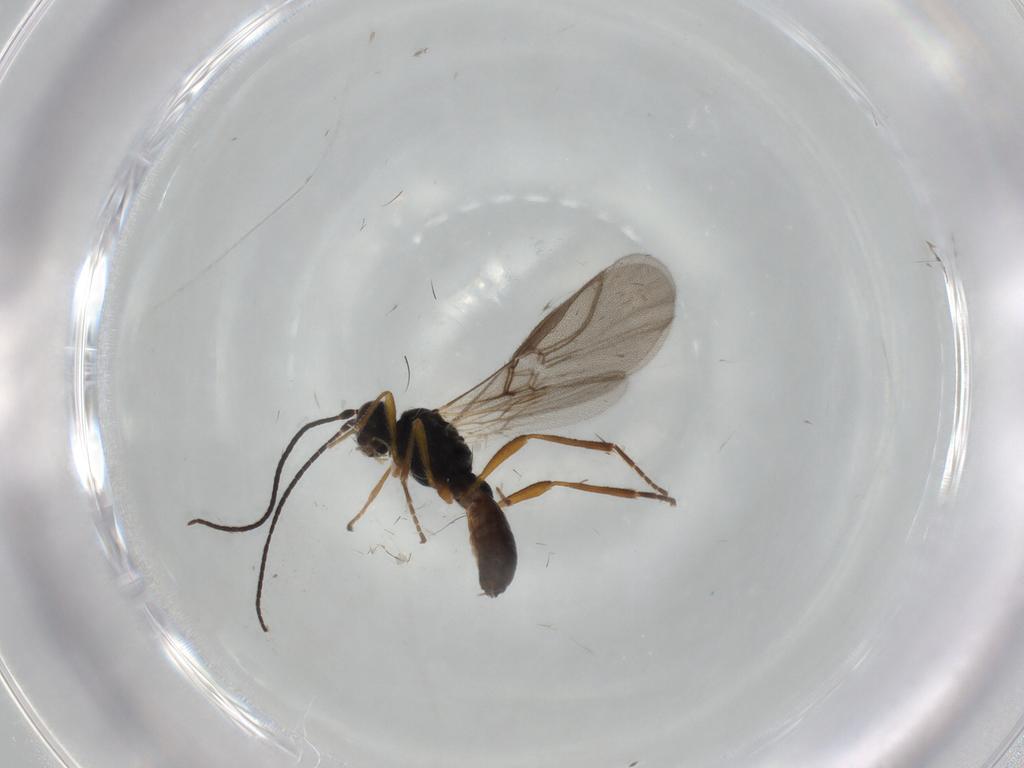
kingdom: Animalia
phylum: Arthropoda
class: Insecta
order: Hymenoptera
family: Braconidae
